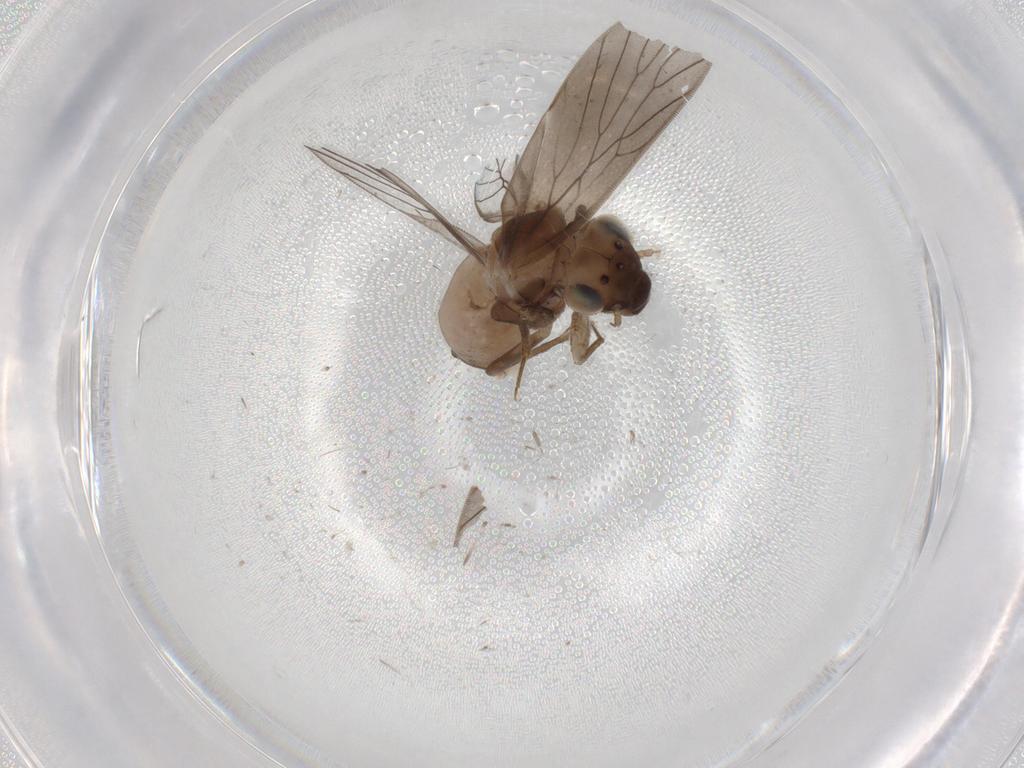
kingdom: Animalia
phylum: Arthropoda
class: Insecta
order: Psocodea
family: Lepidopsocidae
